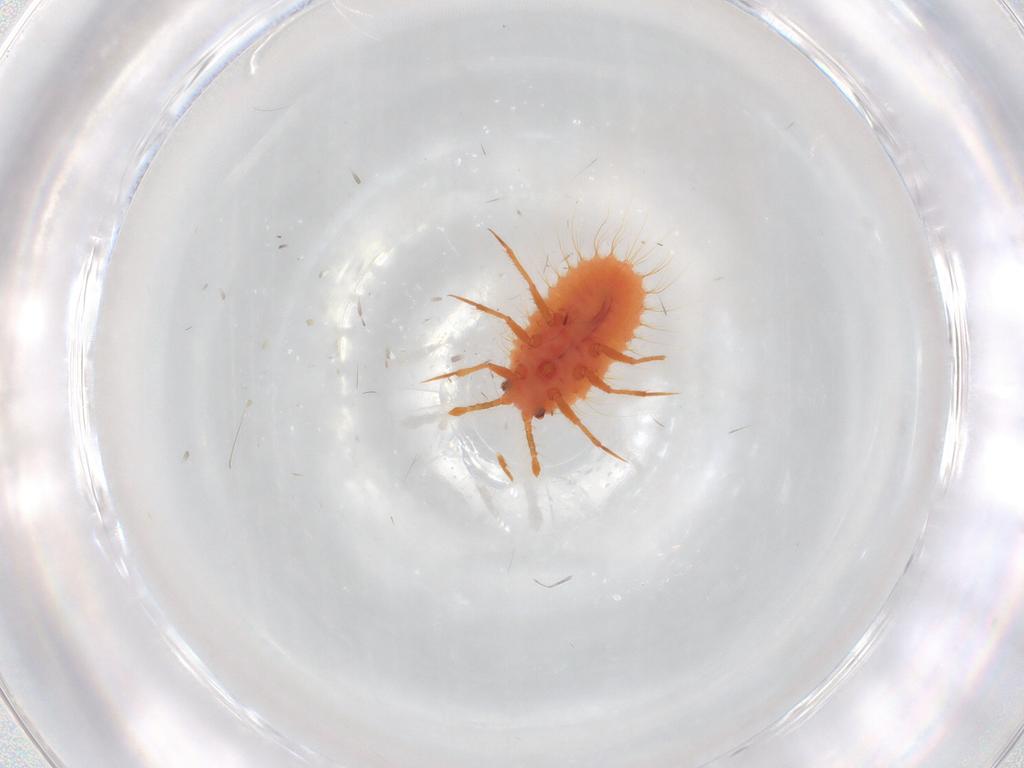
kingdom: Animalia
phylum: Arthropoda
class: Insecta
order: Hemiptera
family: Coccoidea_incertae_sedis
